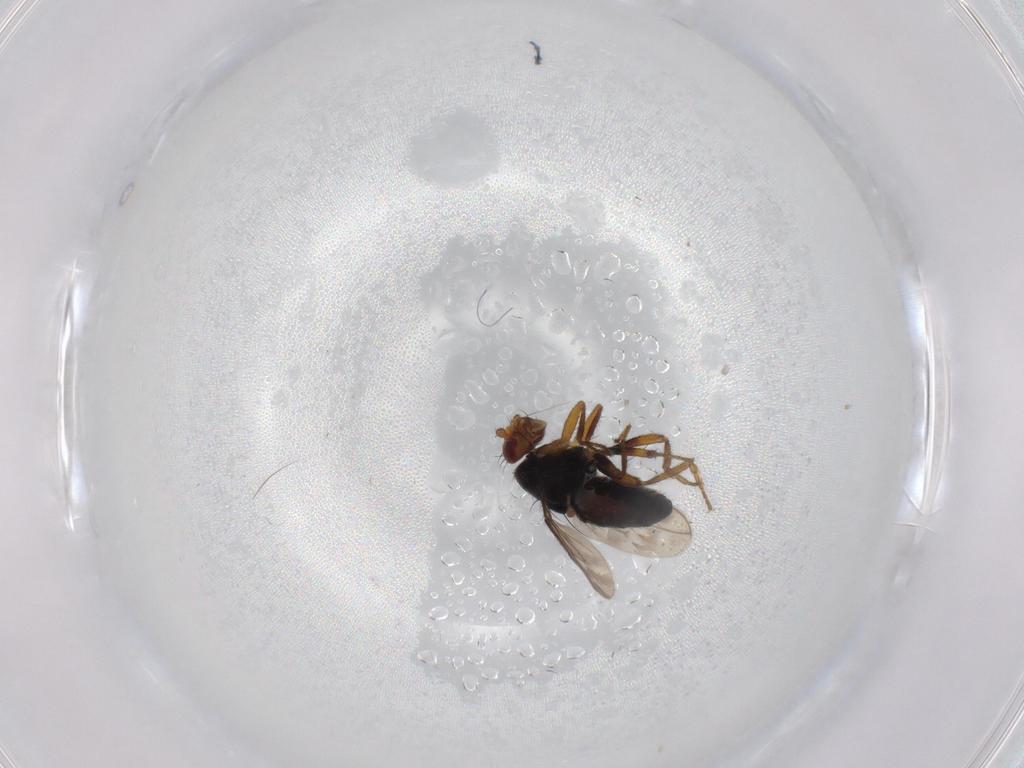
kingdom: Animalia
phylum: Arthropoda
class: Insecta
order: Diptera
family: Sphaeroceridae
